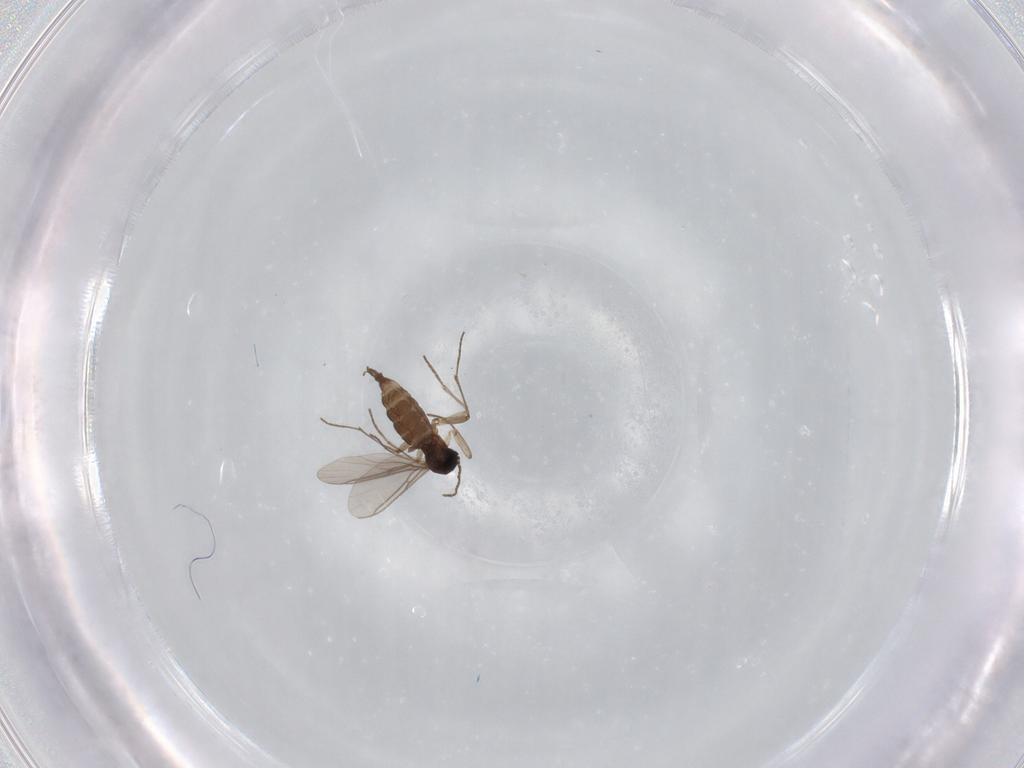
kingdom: Animalia
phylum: Arthropoda
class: Insecta
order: Diptera
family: Sciaridae
